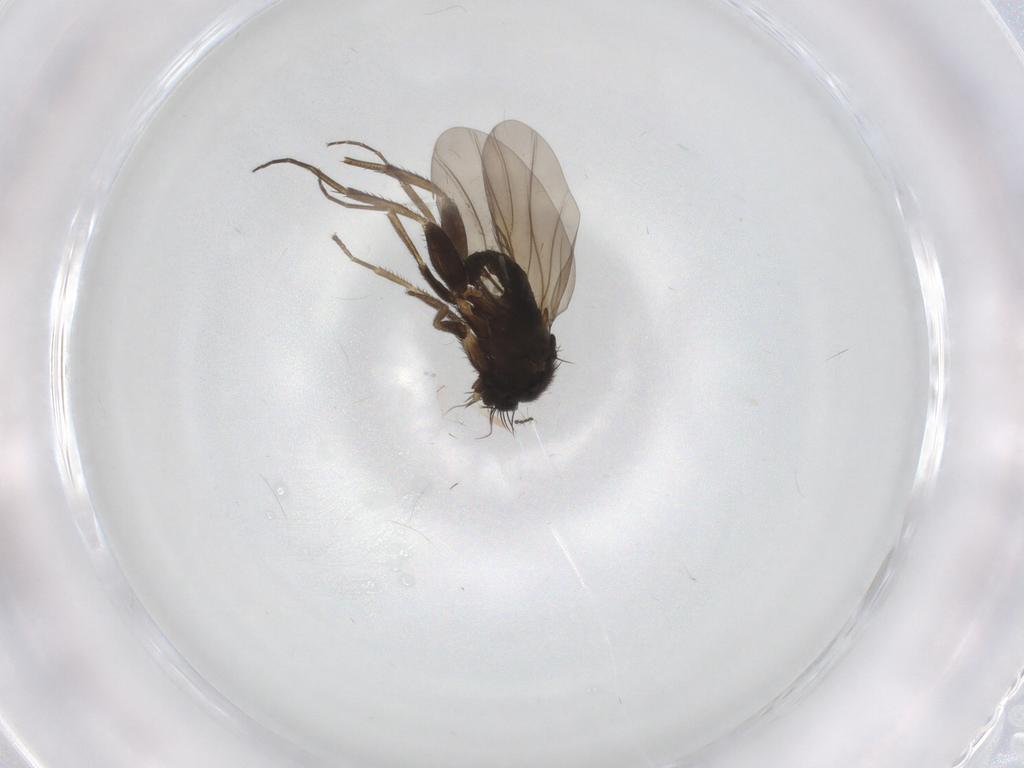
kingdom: Animalia
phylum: Arthropoda
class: Insecta
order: Diptera
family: Phoridae
